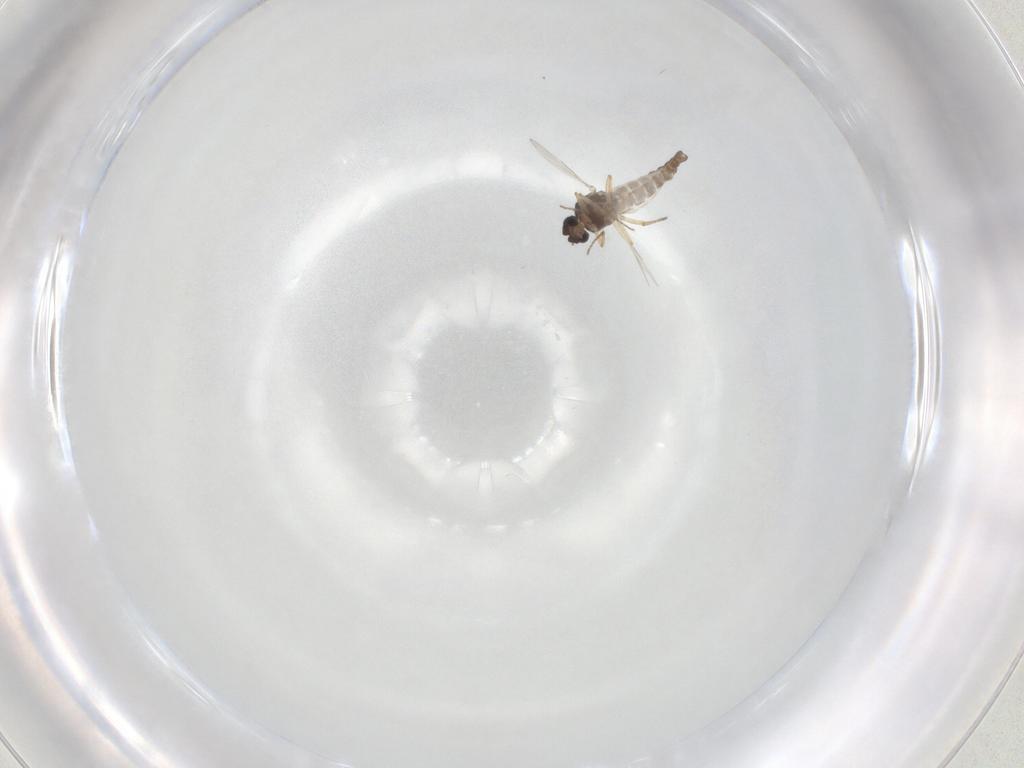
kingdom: Animalia
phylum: Arthropoda
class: Insecta
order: Diptera
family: Ceratopogonidae
